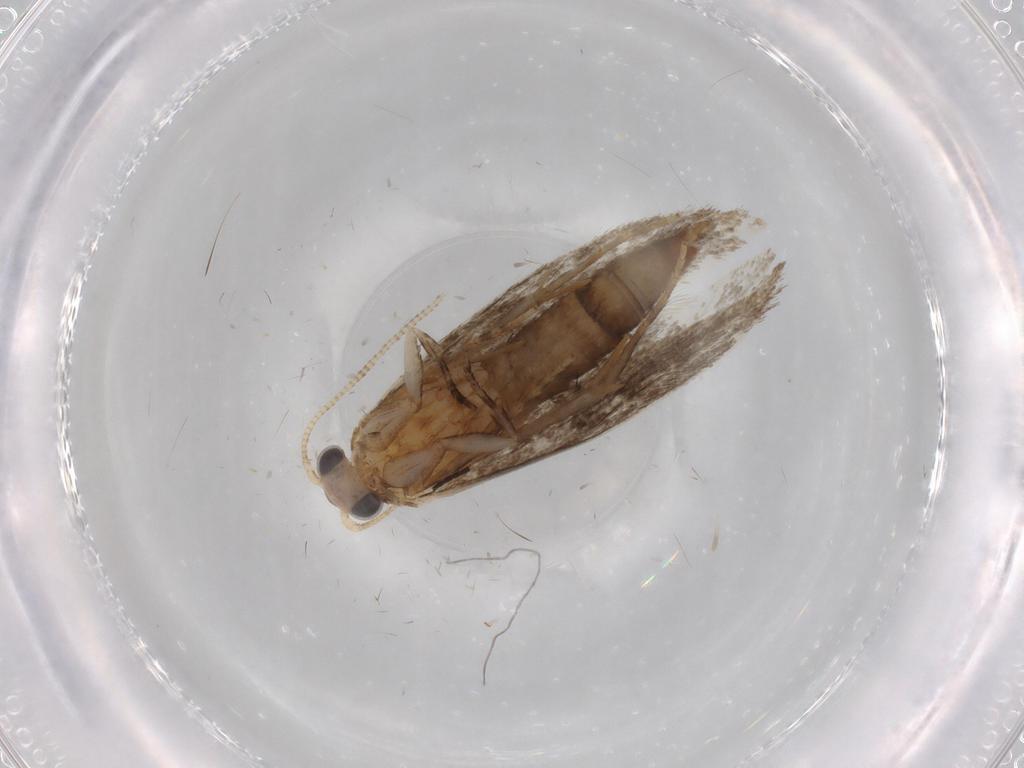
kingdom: Animalia
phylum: Arthropoda
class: Insecta
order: Lepidoptera
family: Tineidae
